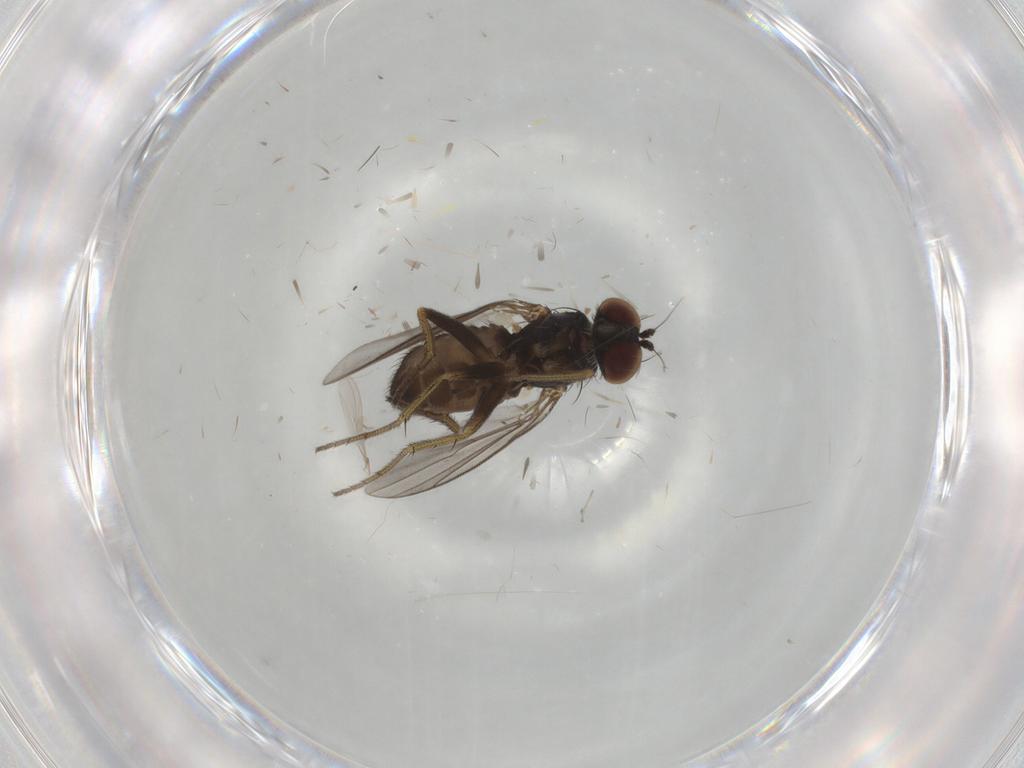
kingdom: Animalia
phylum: Arthropoda
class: Insecta
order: Diptera
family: Dolichopodidae
